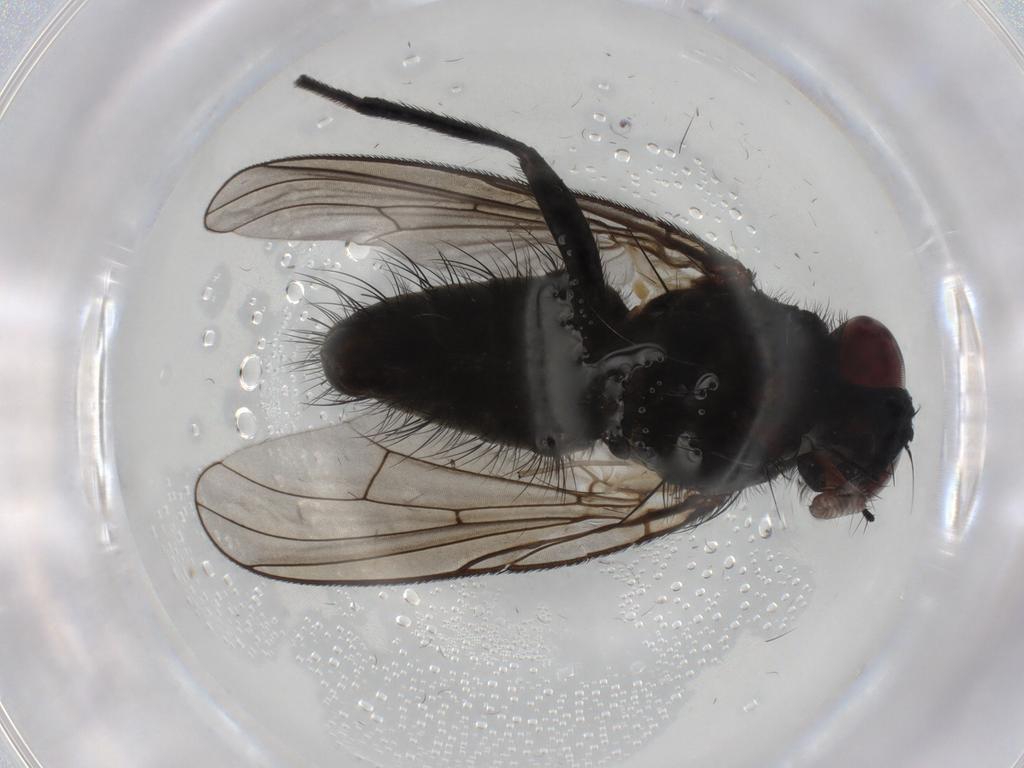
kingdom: Animalia
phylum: Arthropoda
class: Insecta
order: Diptera
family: Muscidae
